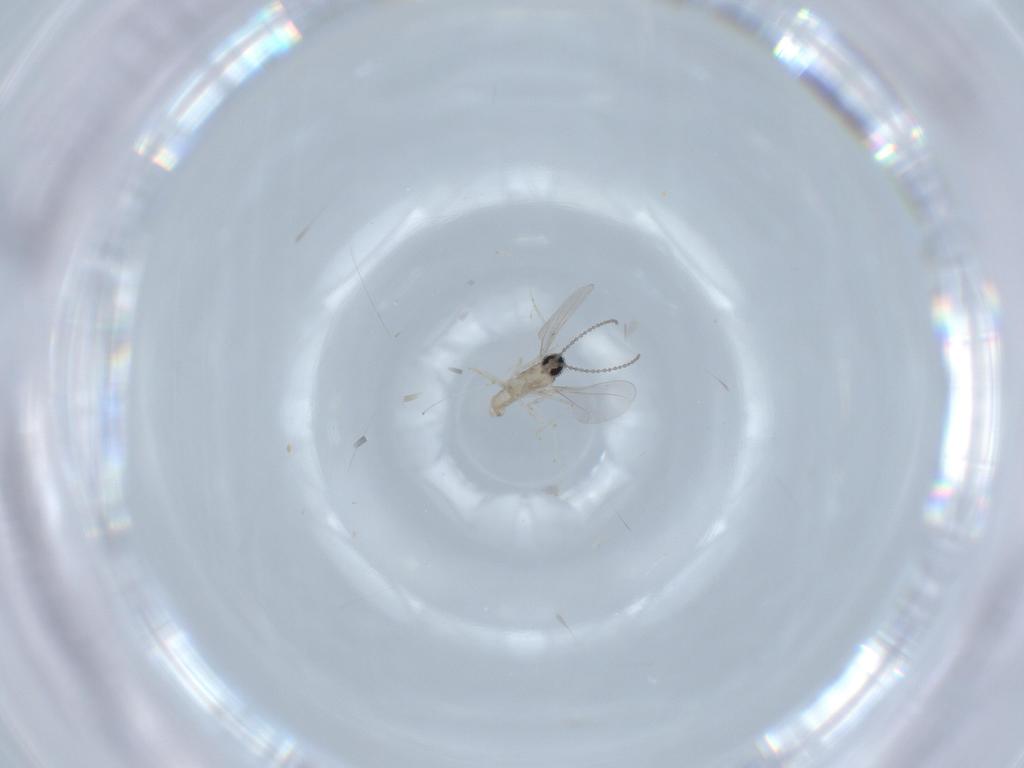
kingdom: Animalia
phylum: Arthropoda
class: Insecta
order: Diptera
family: Cecidomyiidae
